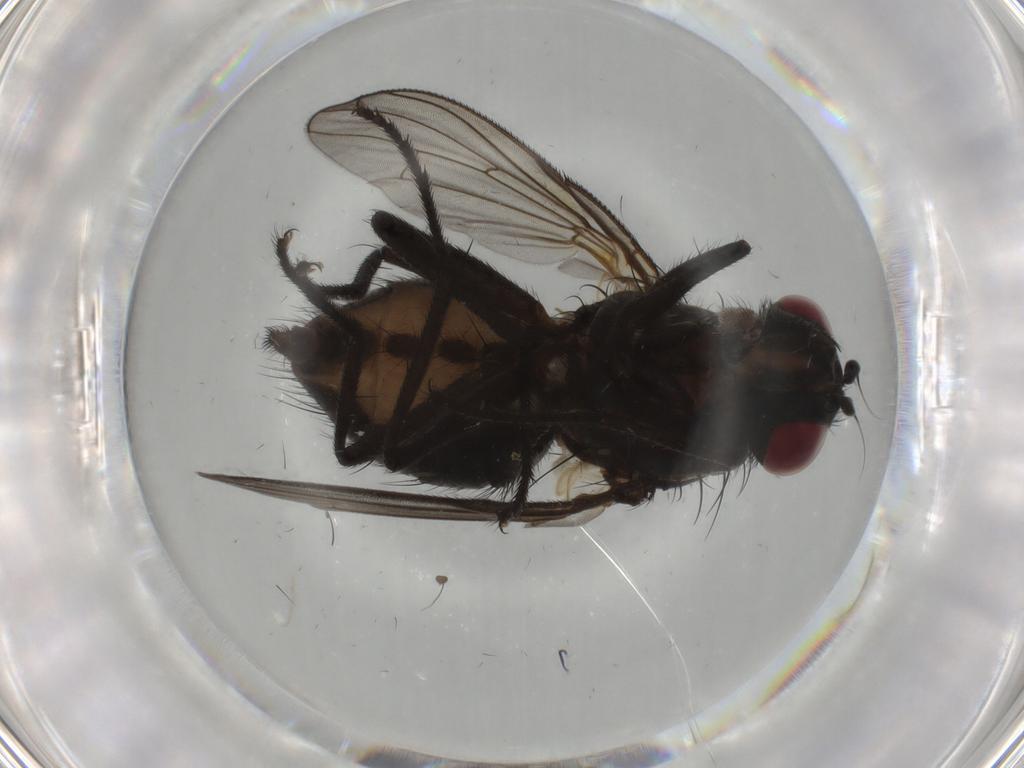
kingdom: Animalia
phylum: Arthropoda
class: Insecta
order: Diptera
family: Muscidae
